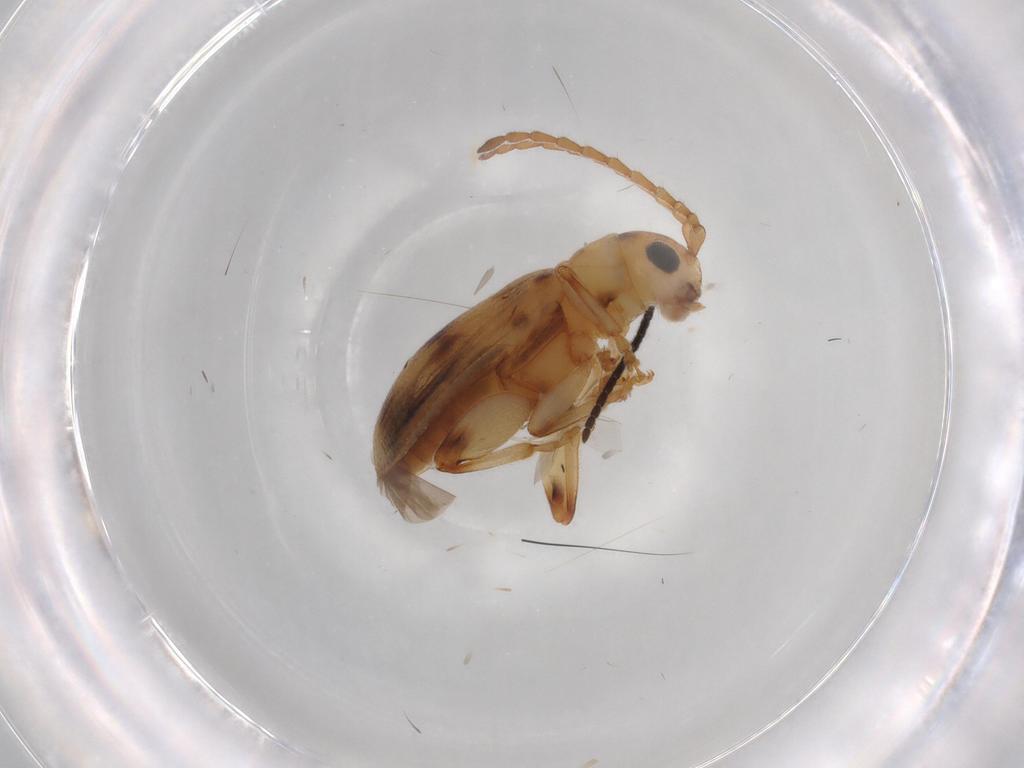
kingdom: Animalia
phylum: Arthropoda
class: Insecta
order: Coleoptera
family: Chrysomelidae
